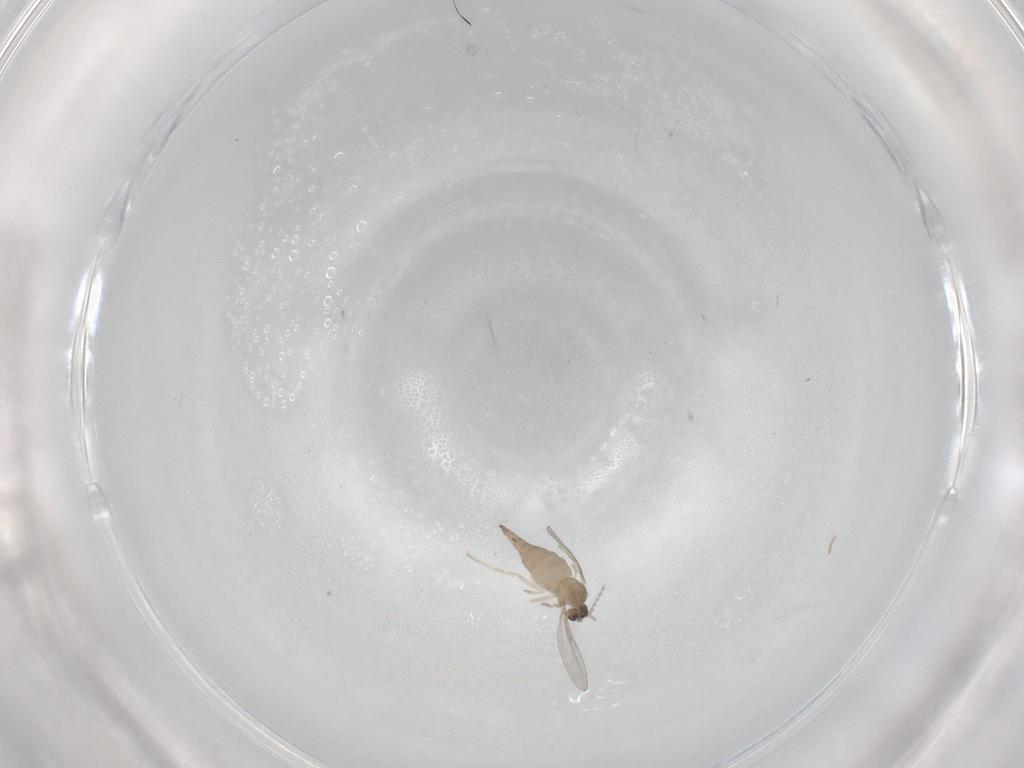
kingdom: Animalia
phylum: Arthropoda
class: Insecta
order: Diptera
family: Cecidomyiidae
